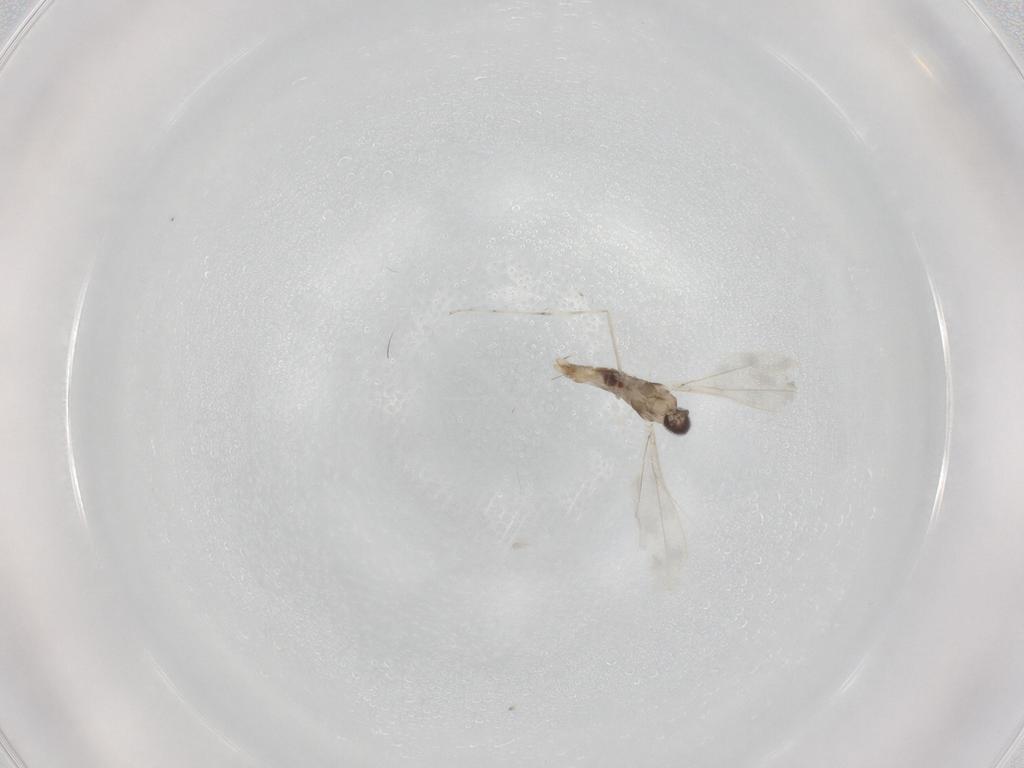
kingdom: Animalia
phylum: Arthropoda
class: Insecta
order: Diptera
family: Cecidomyiidae
